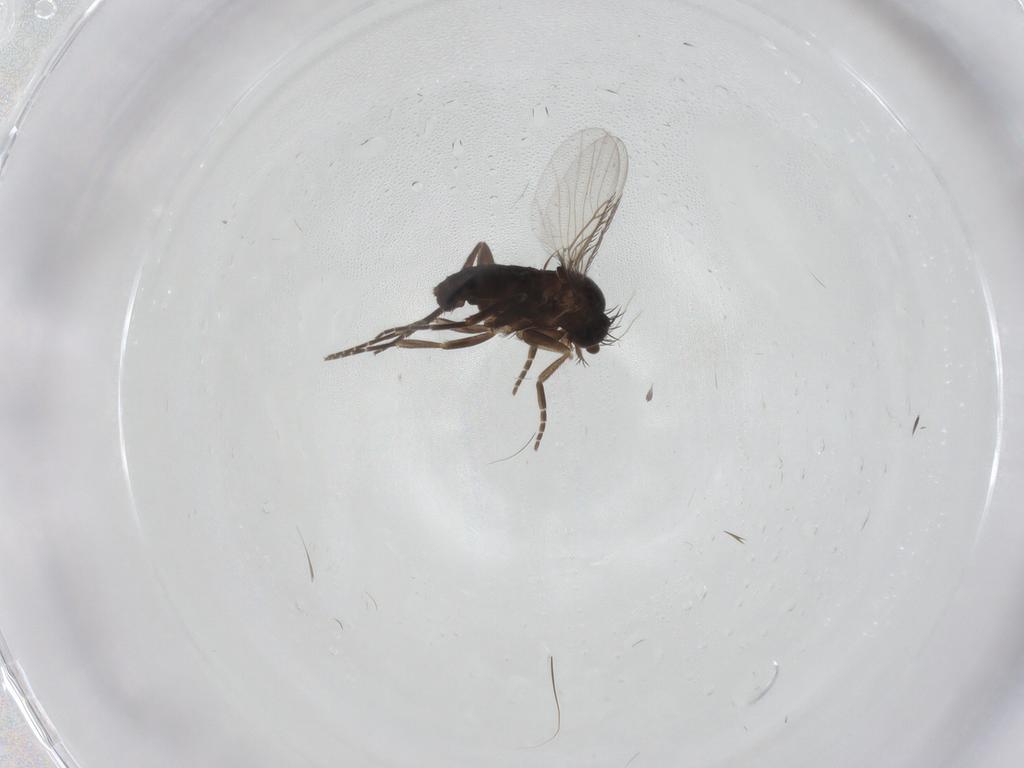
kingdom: Animalia
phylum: Arthropoda
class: Insecta
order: Diptera
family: Phoridae
